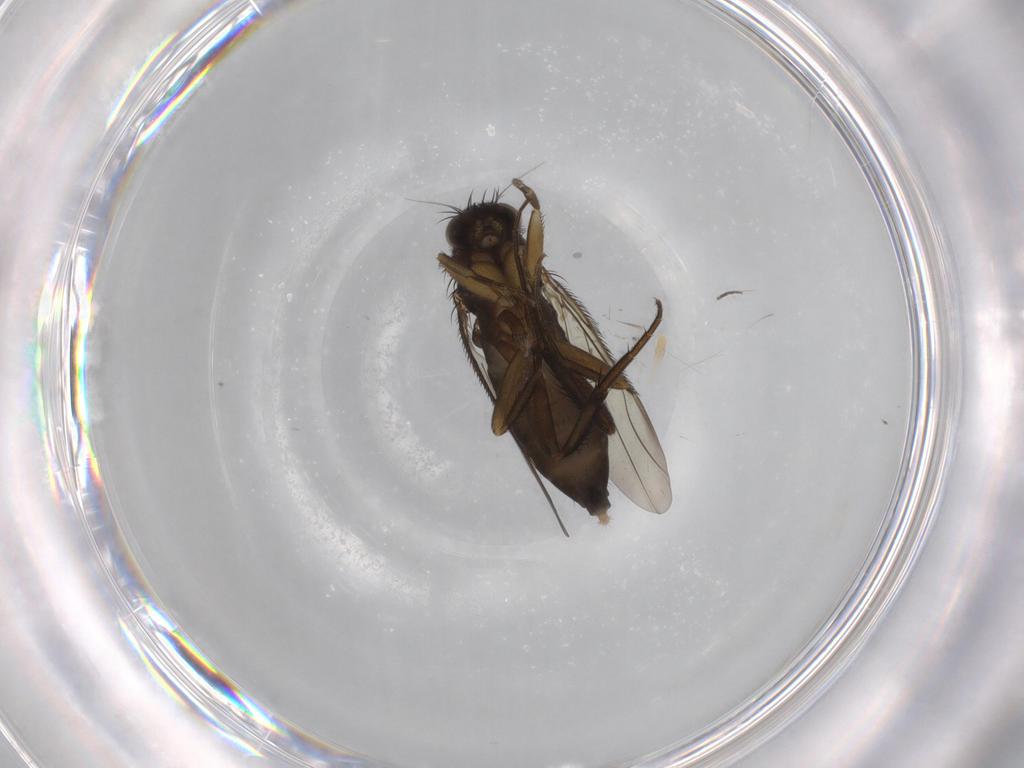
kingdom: Animalia
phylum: Arthropoda
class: Insecta
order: Diptera
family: Phoridae
